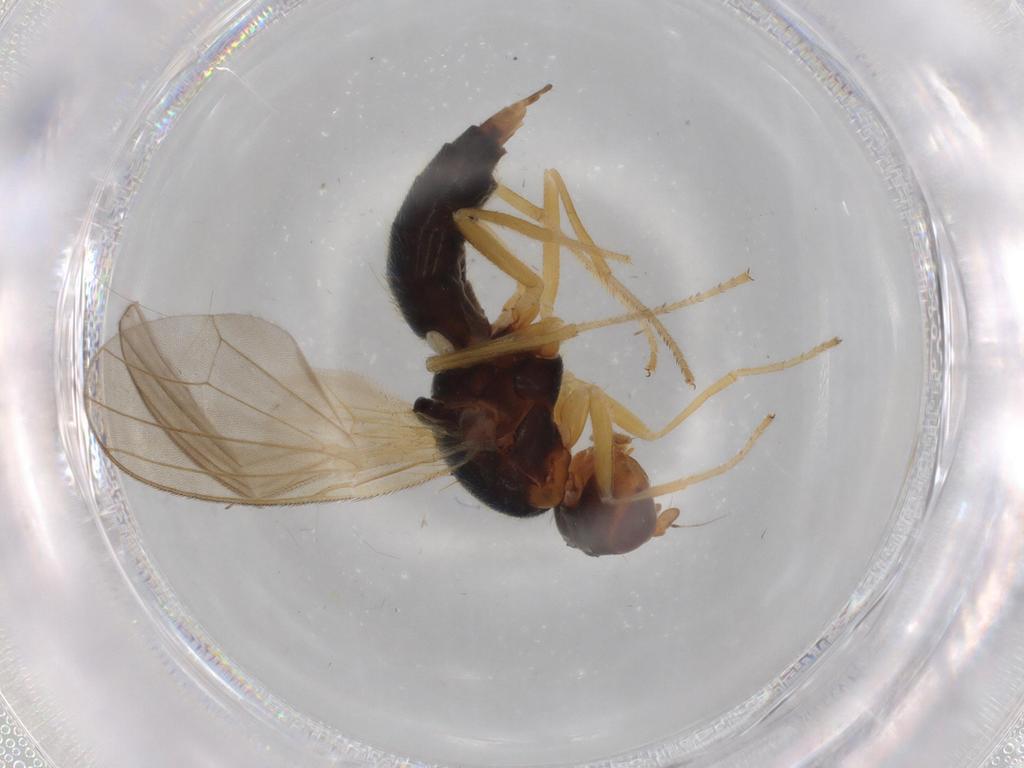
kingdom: Animalia
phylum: Arthropoda
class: Insecta
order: Diptera
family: Drosophilidae
